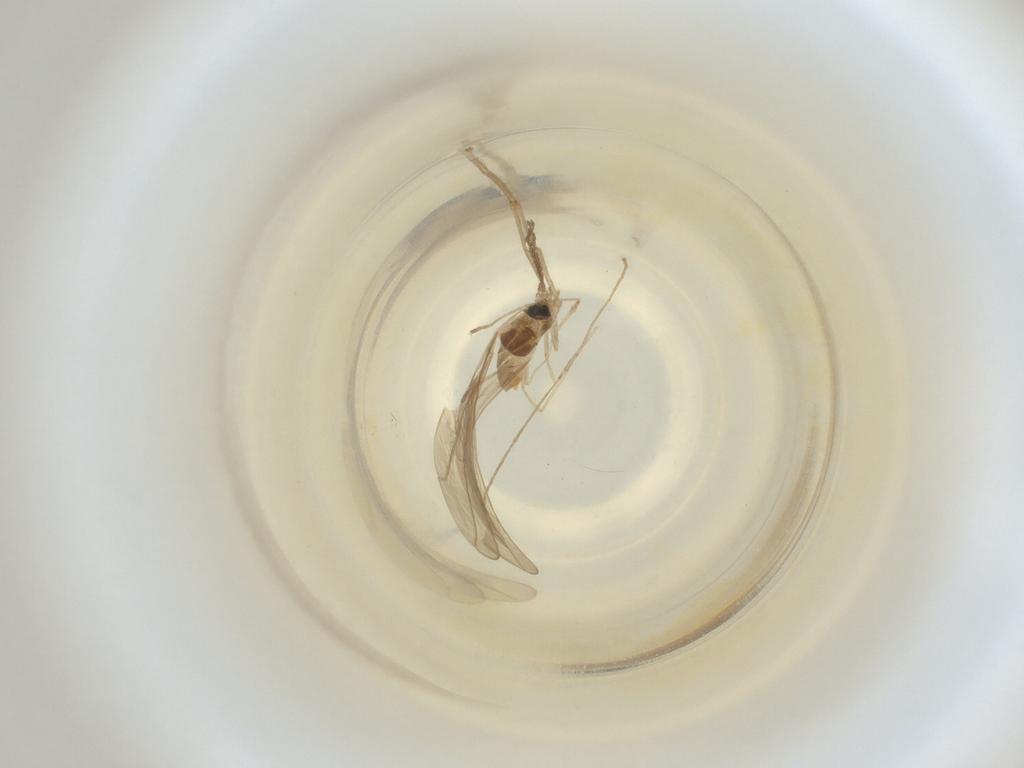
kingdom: Animalia
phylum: Arthropoda
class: Insecta
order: Diptera
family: Cecidomyiidae
